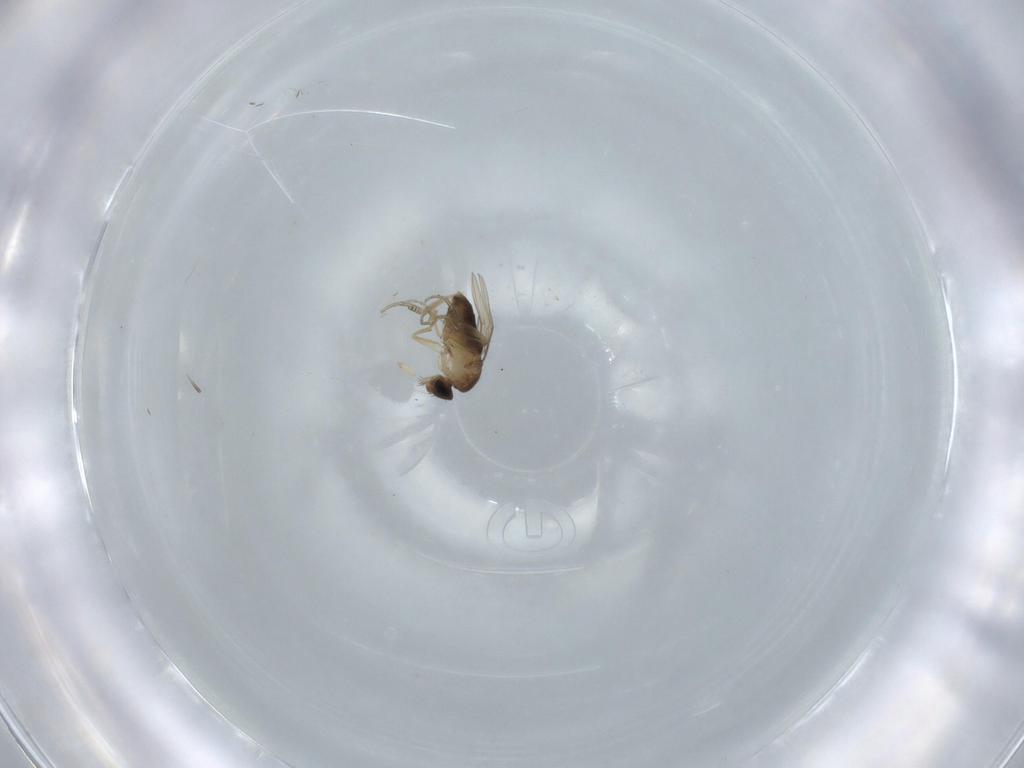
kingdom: Animalia
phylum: Arthropoda
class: Insecta
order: Diptera
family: Phoridae
